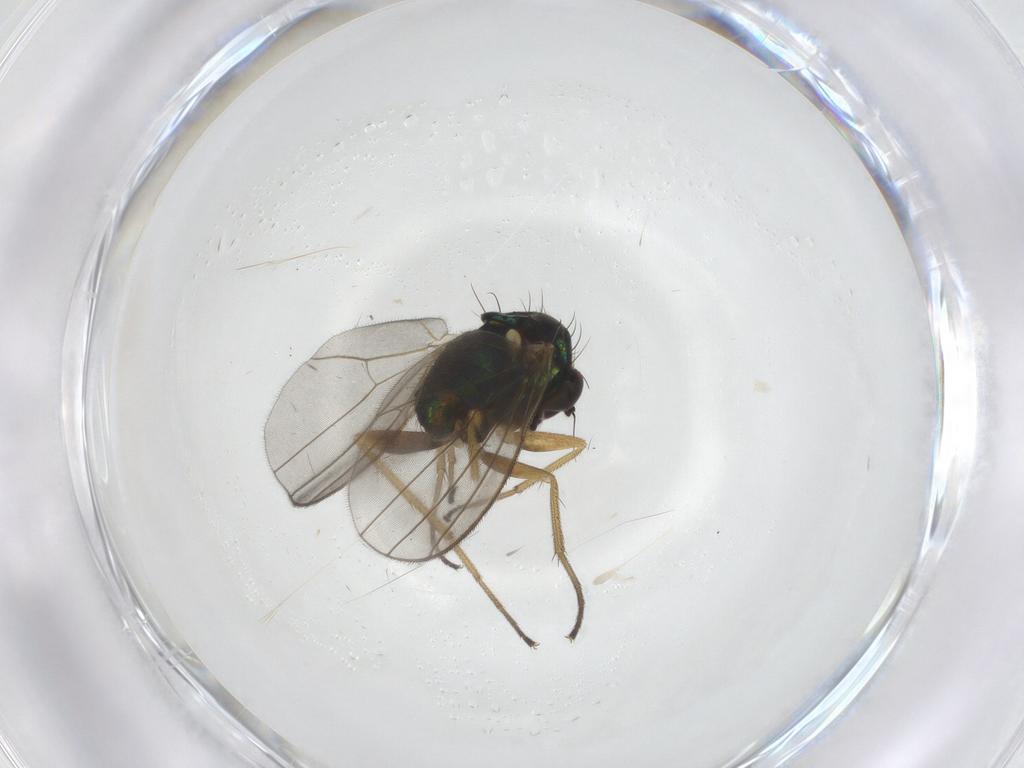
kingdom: Animalia
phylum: Arthropoda
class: Insecta
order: Diptera
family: Dolichopodidae
